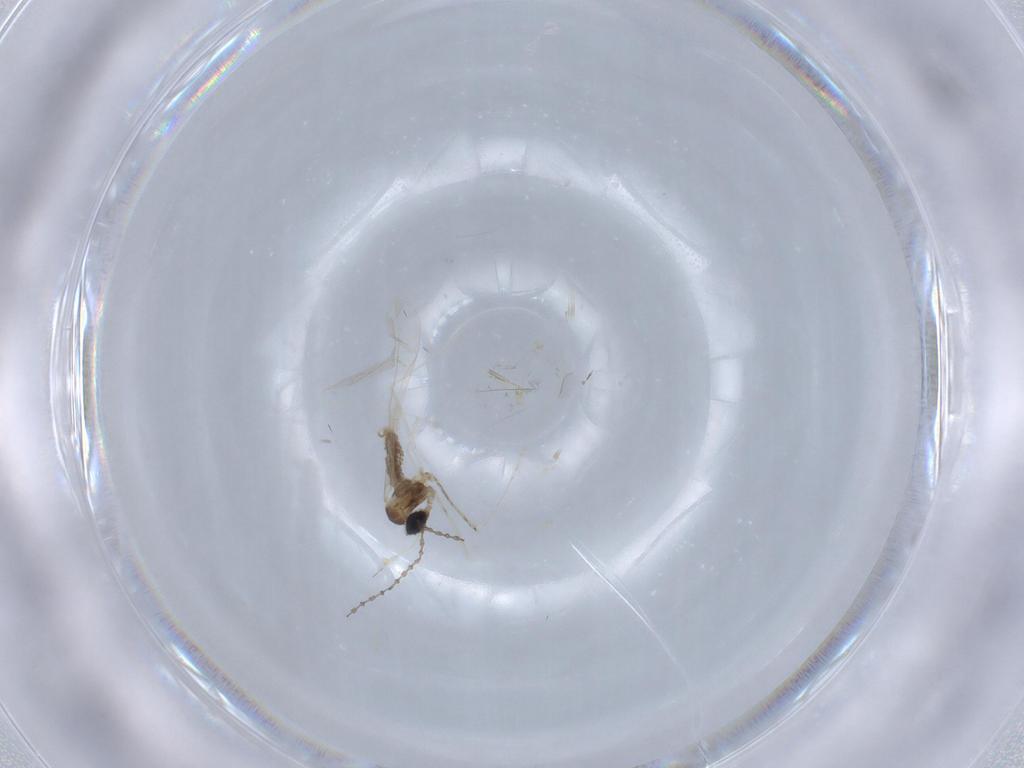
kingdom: Animalia
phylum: Arthropoda
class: Insecta
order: Diptera
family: Cecidomyiidae
